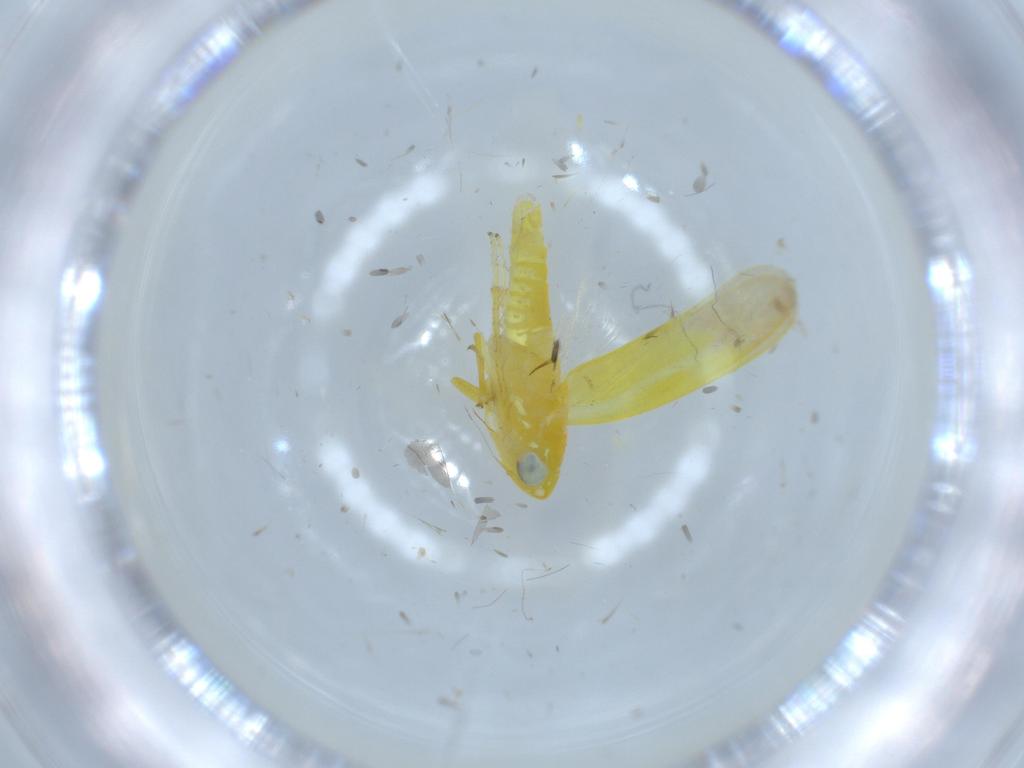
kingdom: Animalia
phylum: Arthropoda
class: Insecta
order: Hemiptera
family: Cicadellidae
